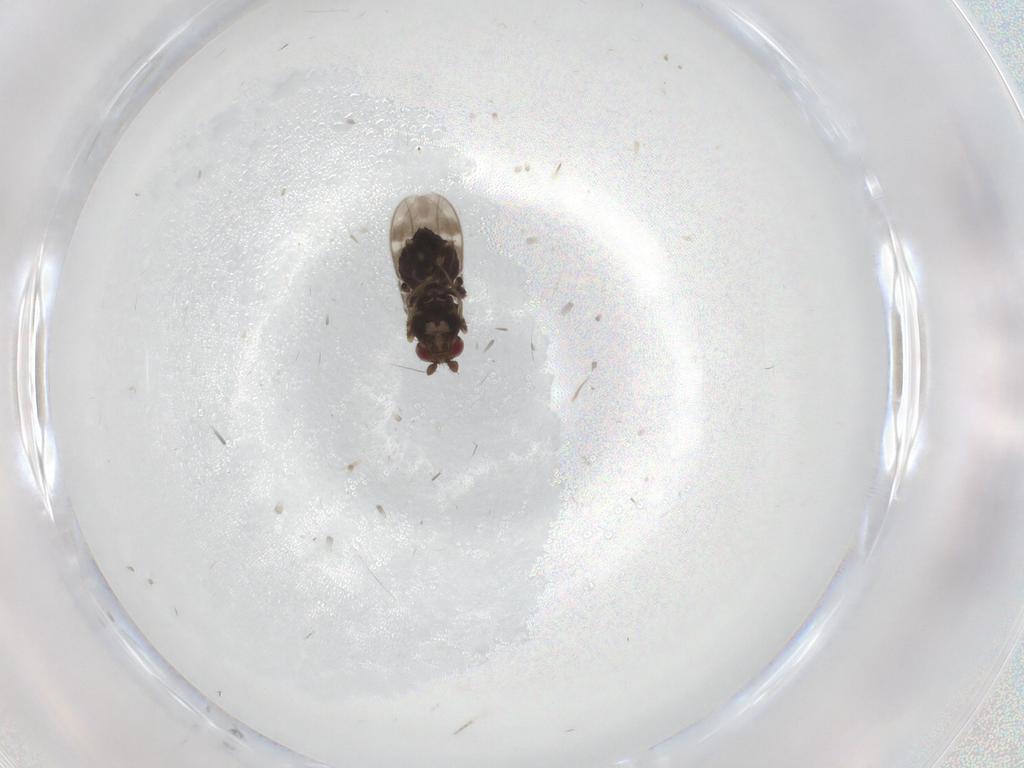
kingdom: Animalia
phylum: Arthropoda
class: Insecta
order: Diptera
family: Sphaeroceridae
